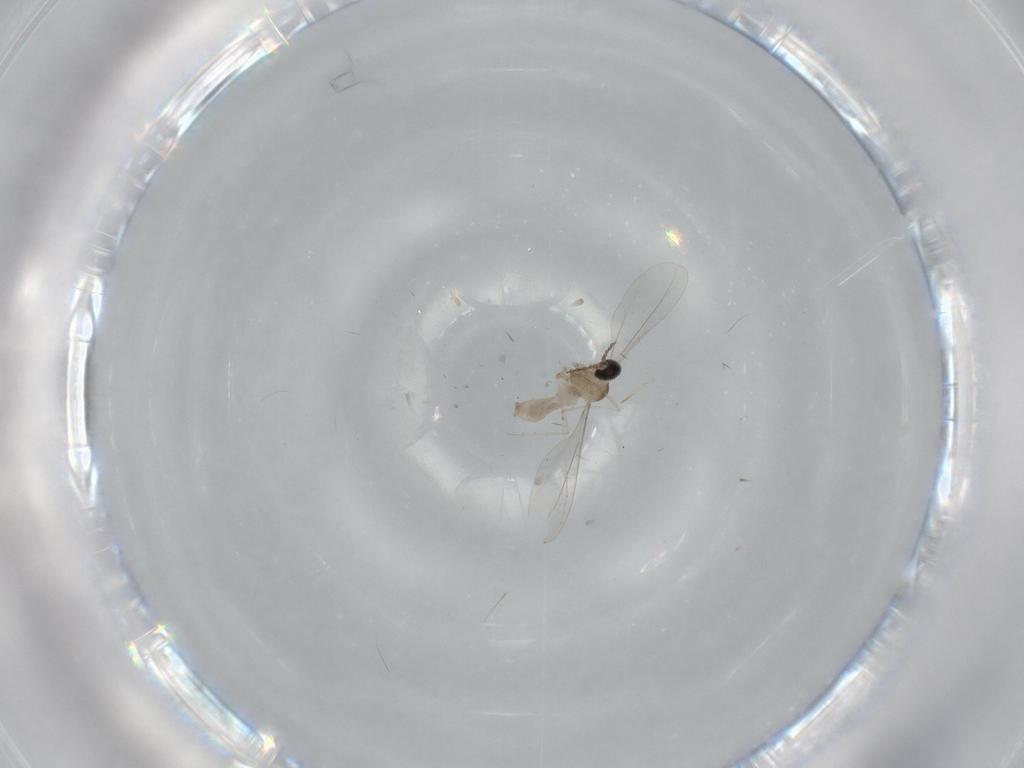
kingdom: Animalia
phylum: Arthropoda
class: Insecta
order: Diptera
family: Cecidomyiidae
